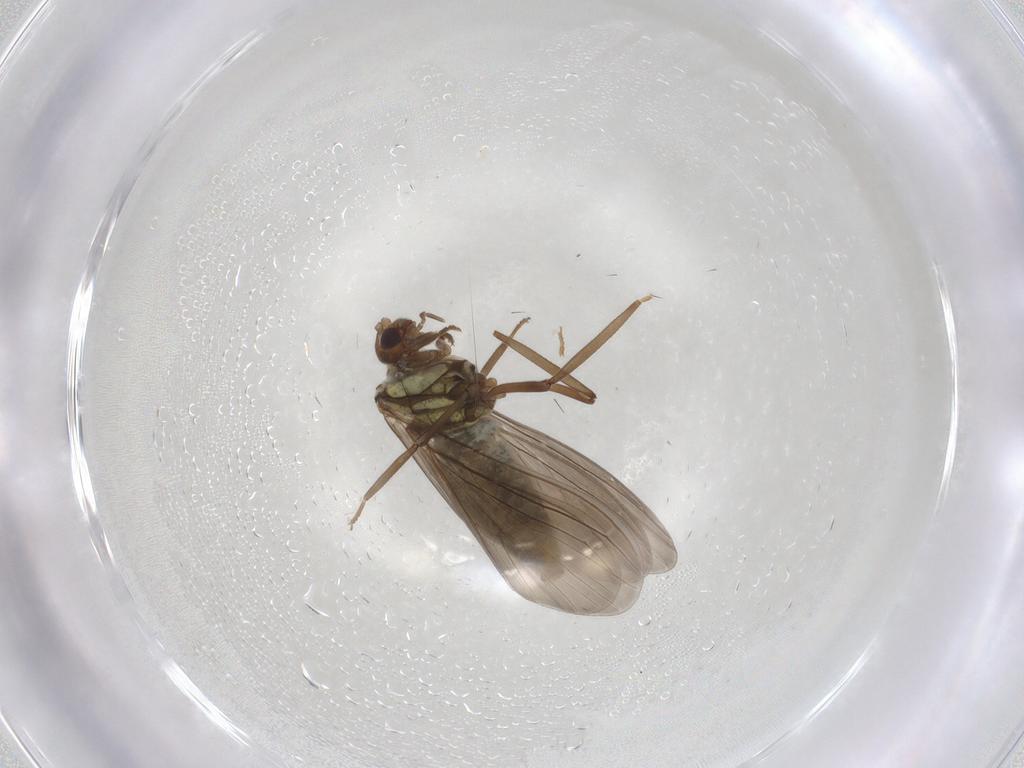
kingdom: Animalia
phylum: Arthropoda
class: Insecta
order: Neuroptera
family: Coniopterygidae
